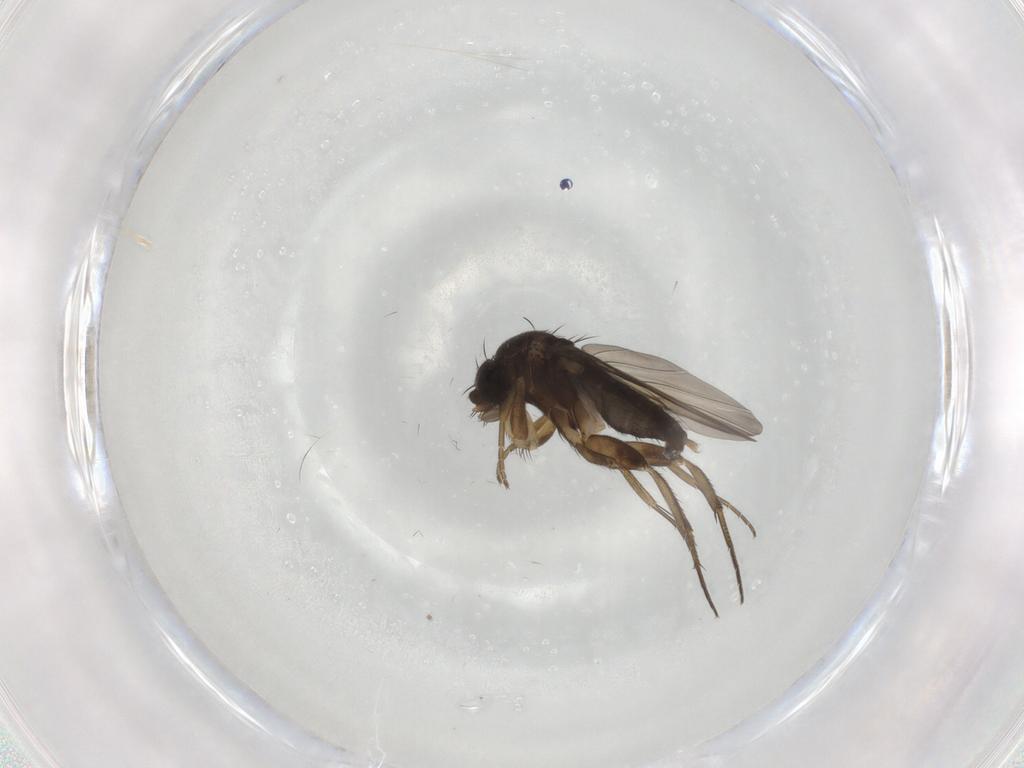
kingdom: Animalia
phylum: Arthropoda
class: Insecta
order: Diptera
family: Phoridae
